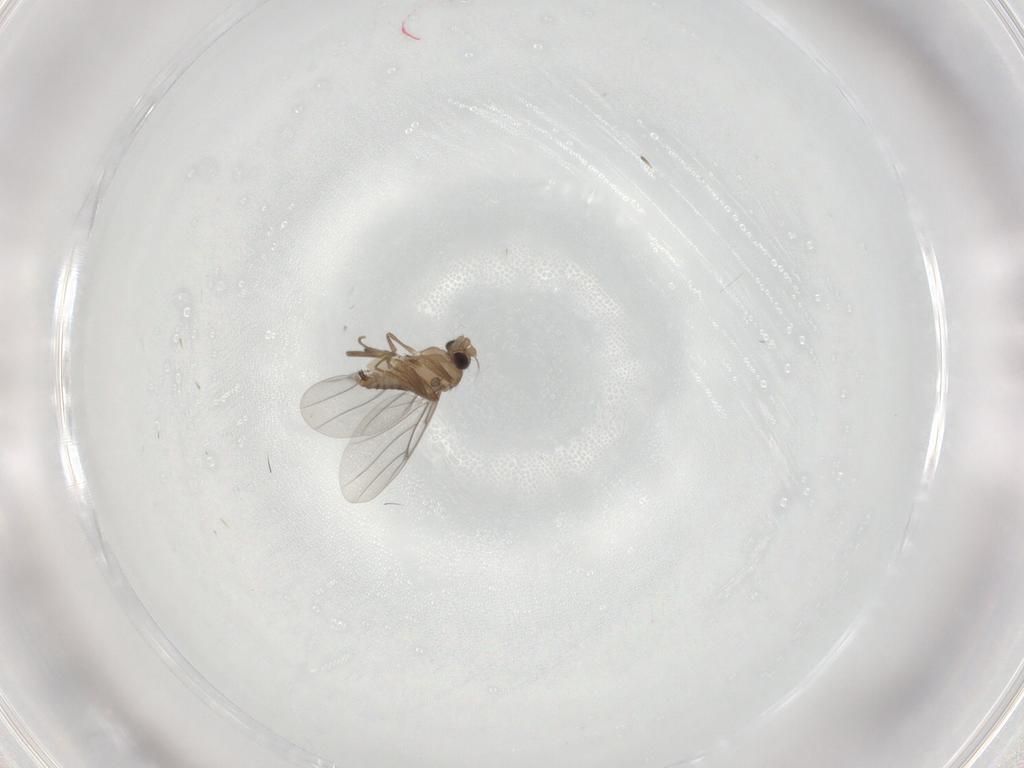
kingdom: Animalia
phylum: Arthropoda
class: Insecta
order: Diptera
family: Limoniidae
